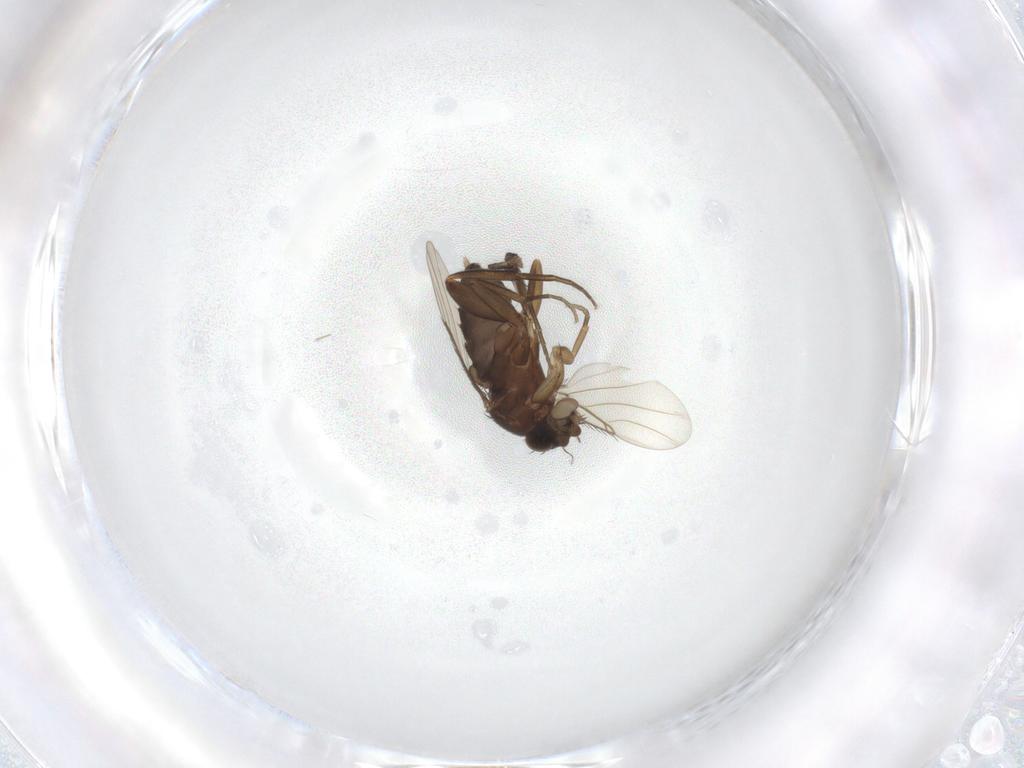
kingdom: Animalia
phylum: Arthropoda
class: Insecta
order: Diptera
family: Phoridae
